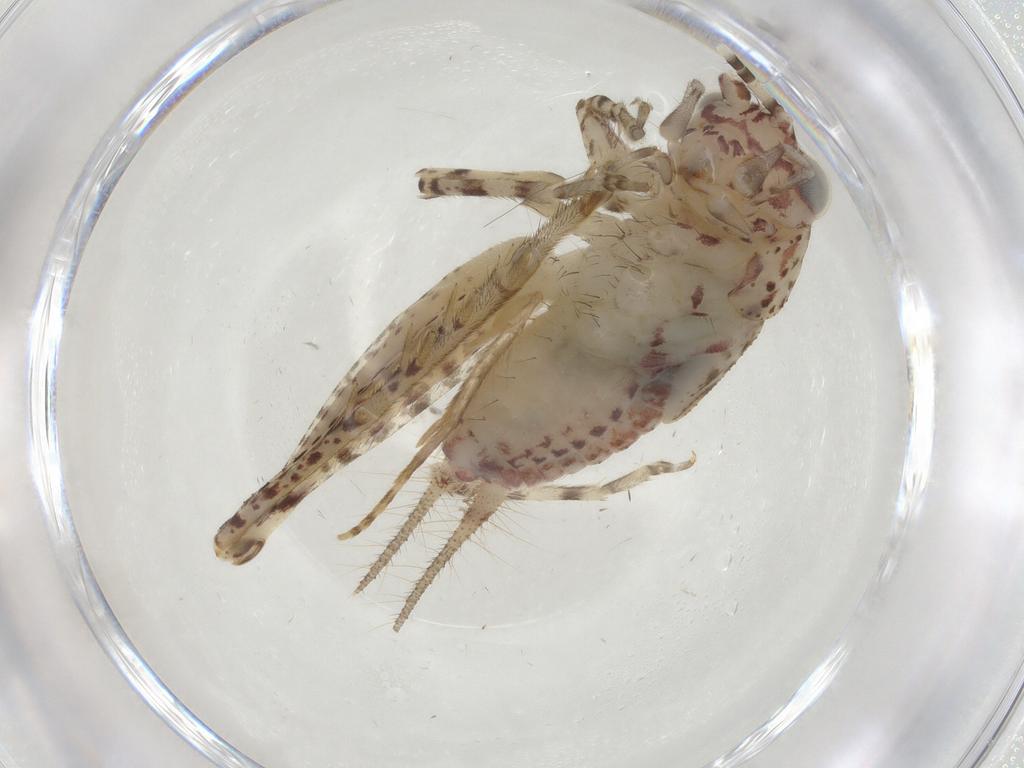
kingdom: Animalia
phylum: Arthropoda
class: Insecta
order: Orthoptera
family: Trigonidiidae
